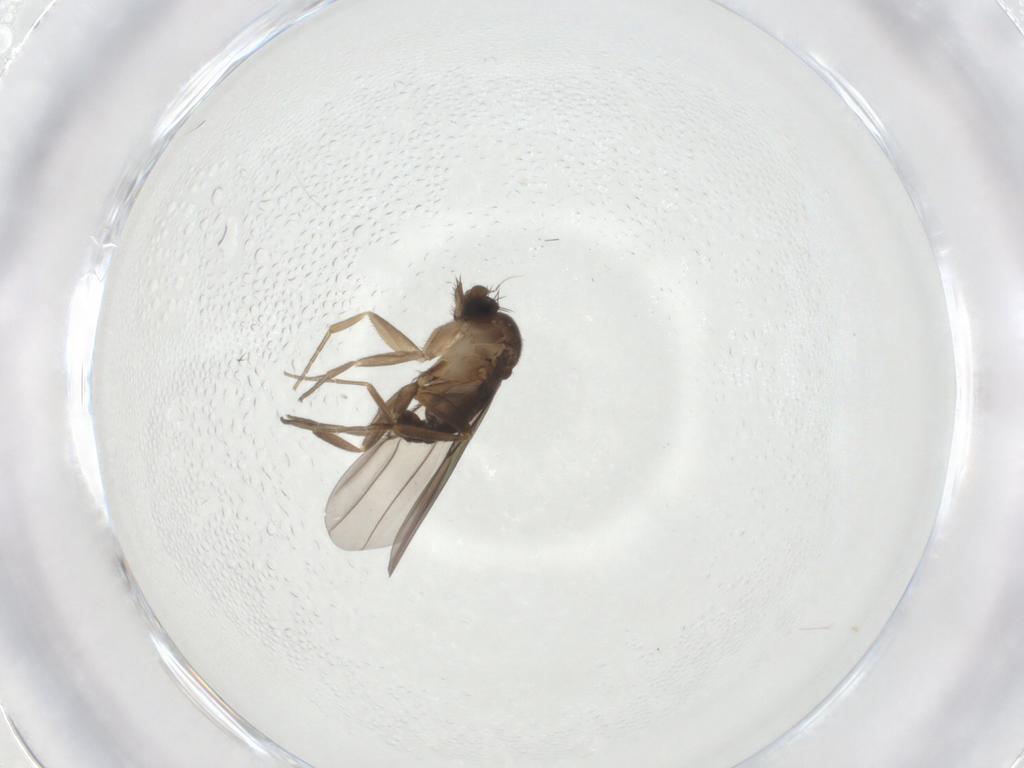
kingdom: Animalia
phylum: Arthropoda
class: Insecta
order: Diptera
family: Phoridae
